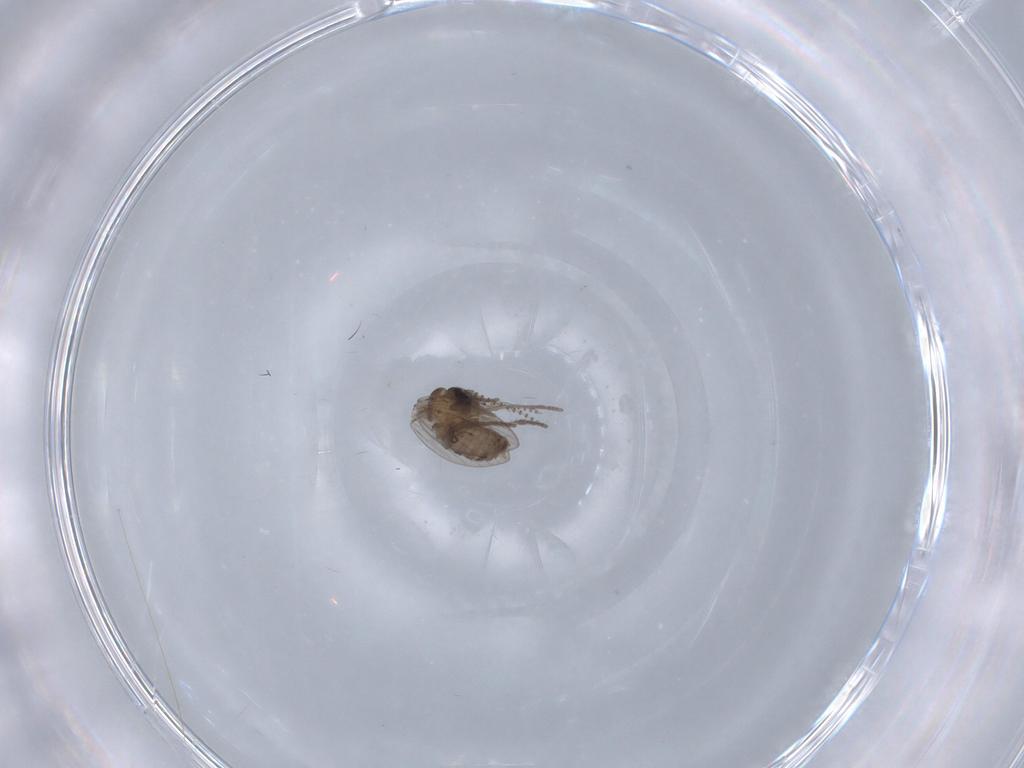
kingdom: Animalia
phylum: Arthropoda
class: Insecta
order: Diptera
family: Psychodidae
